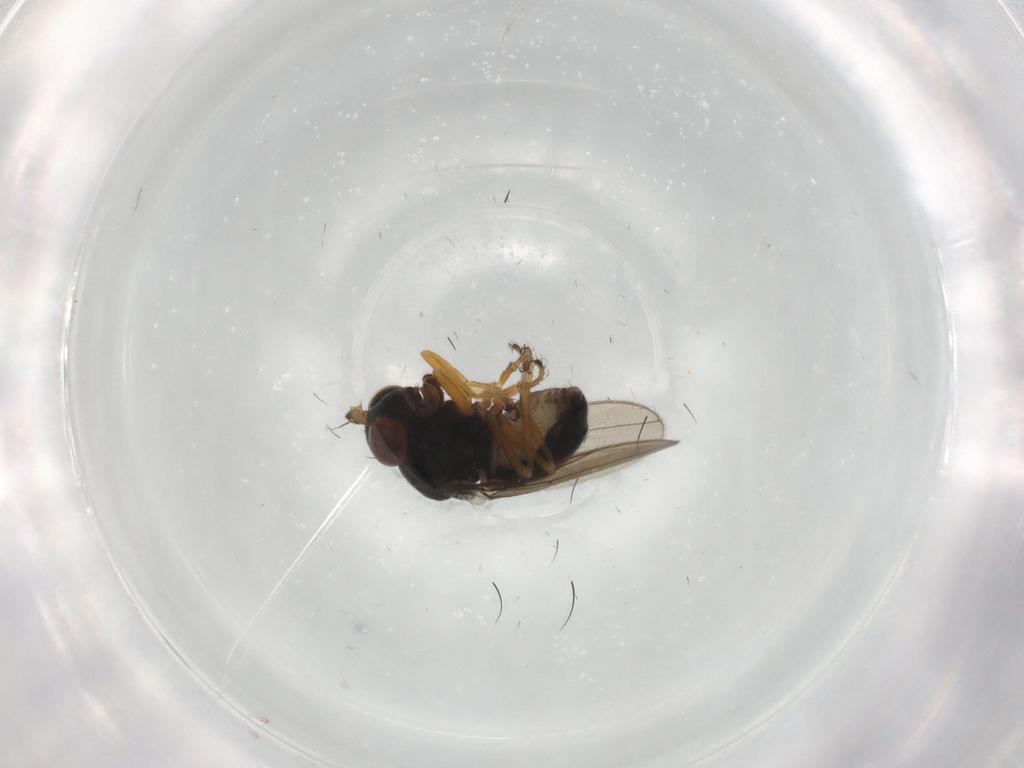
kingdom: Animalia
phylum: Arthropoda
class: Insecta
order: Diptera
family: Ephydridae
